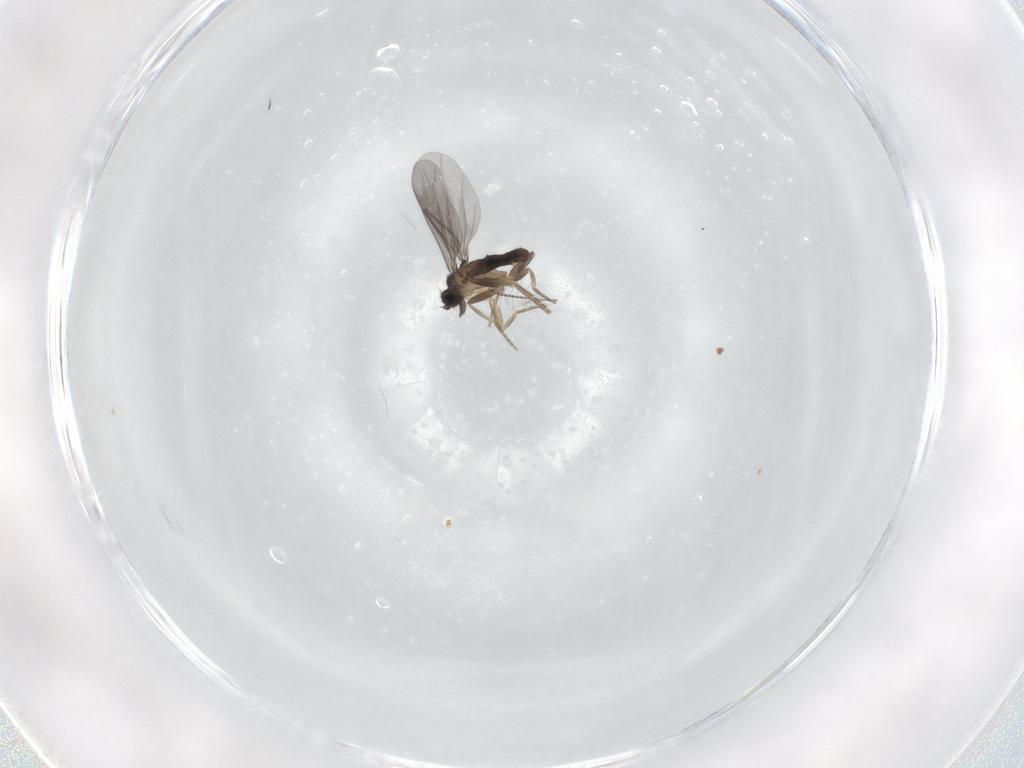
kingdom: Animalia
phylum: Arthropoda
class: Insecta
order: Diptera
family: Phoridae
